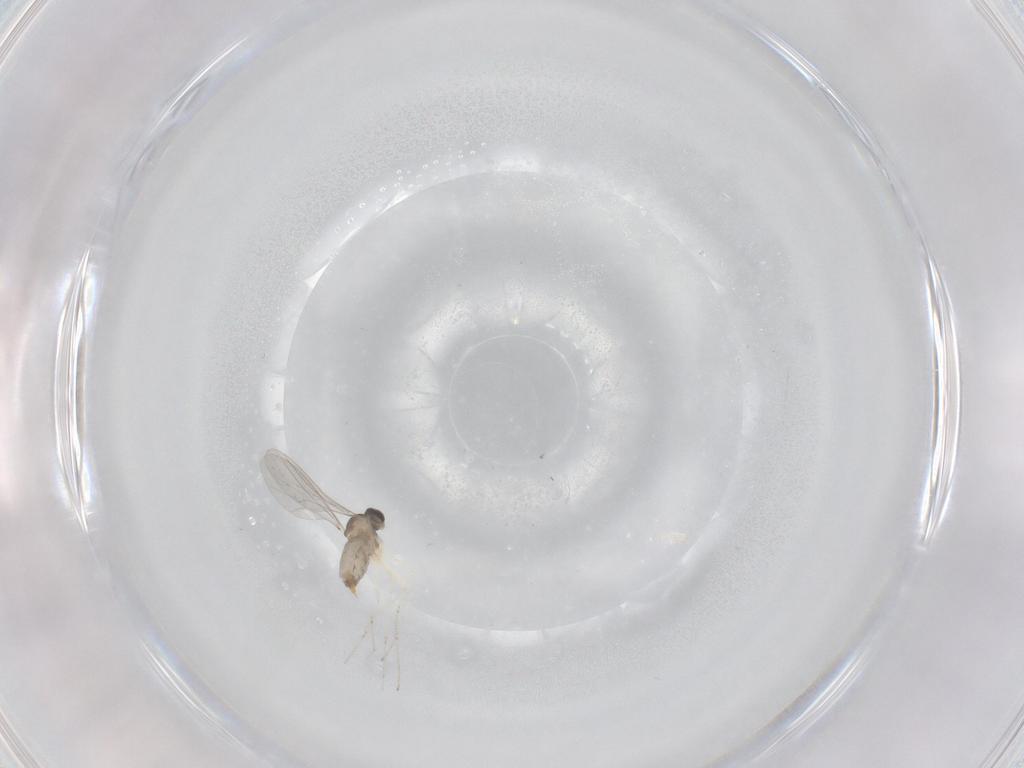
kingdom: Animalia
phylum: Arthropoda
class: Insecta
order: Diptera
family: Cecidomyiidae
